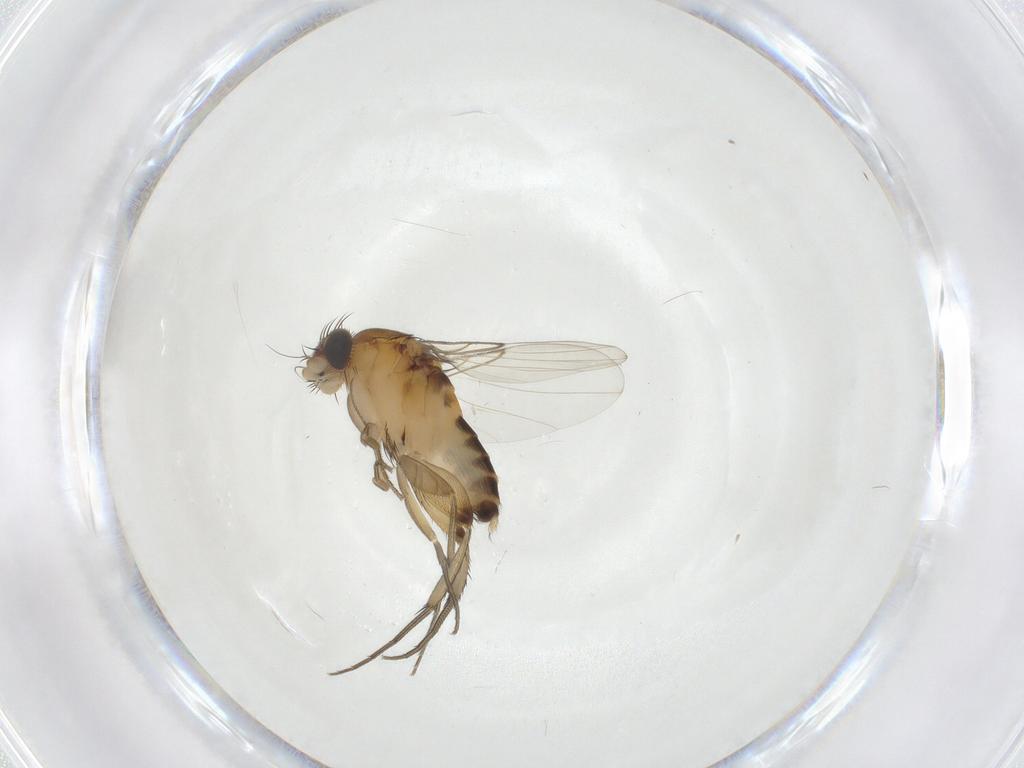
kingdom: Animalia
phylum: Arthropoda
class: Insecta
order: Diptera
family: Phoridae
